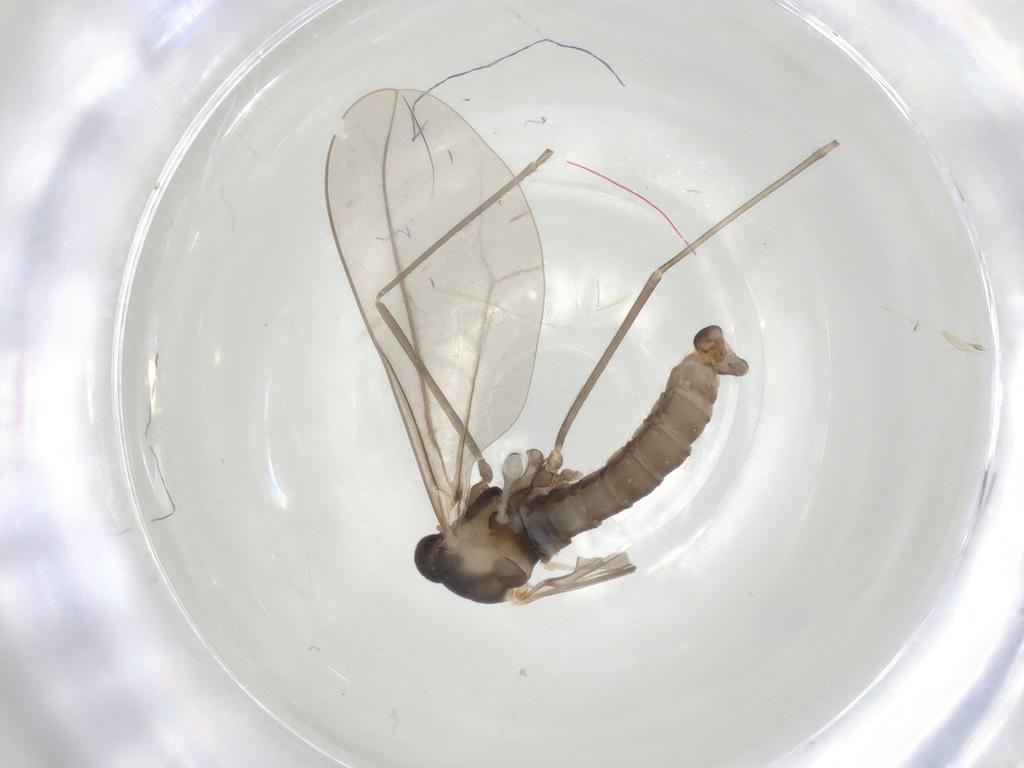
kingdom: Animalia
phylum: Arthropoda
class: Insecta
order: Diptera
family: Cecidomyiidae
